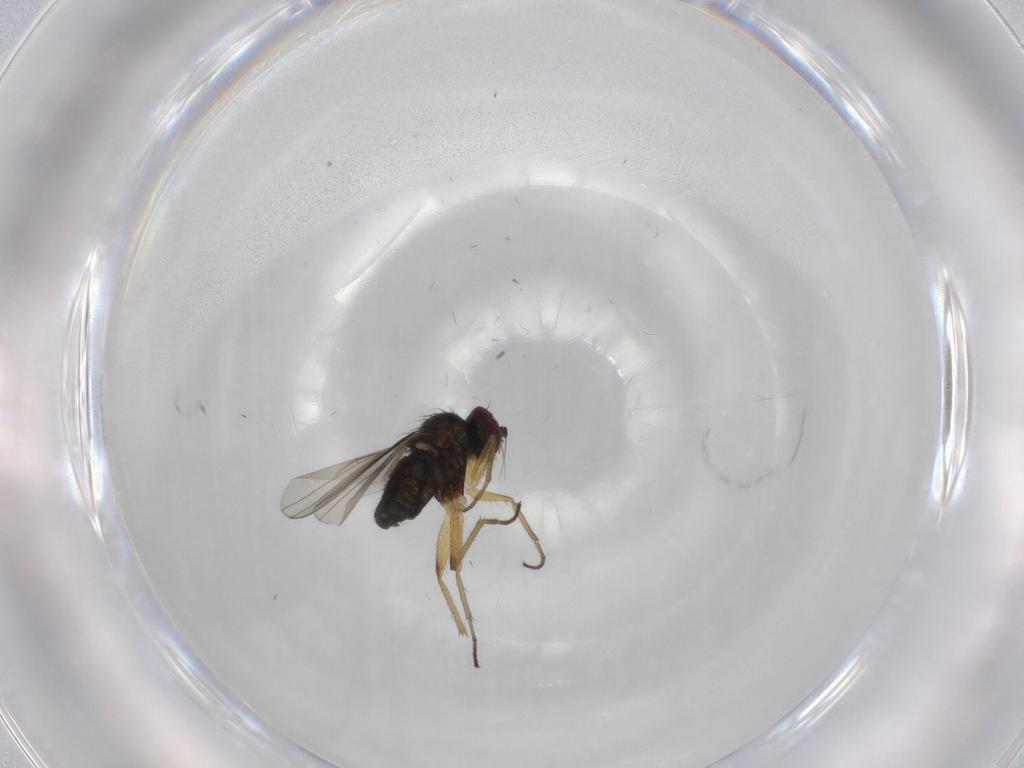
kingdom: Animalia
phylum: Arthropoda
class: Insecta
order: Diptera
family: Dolichopodidae
